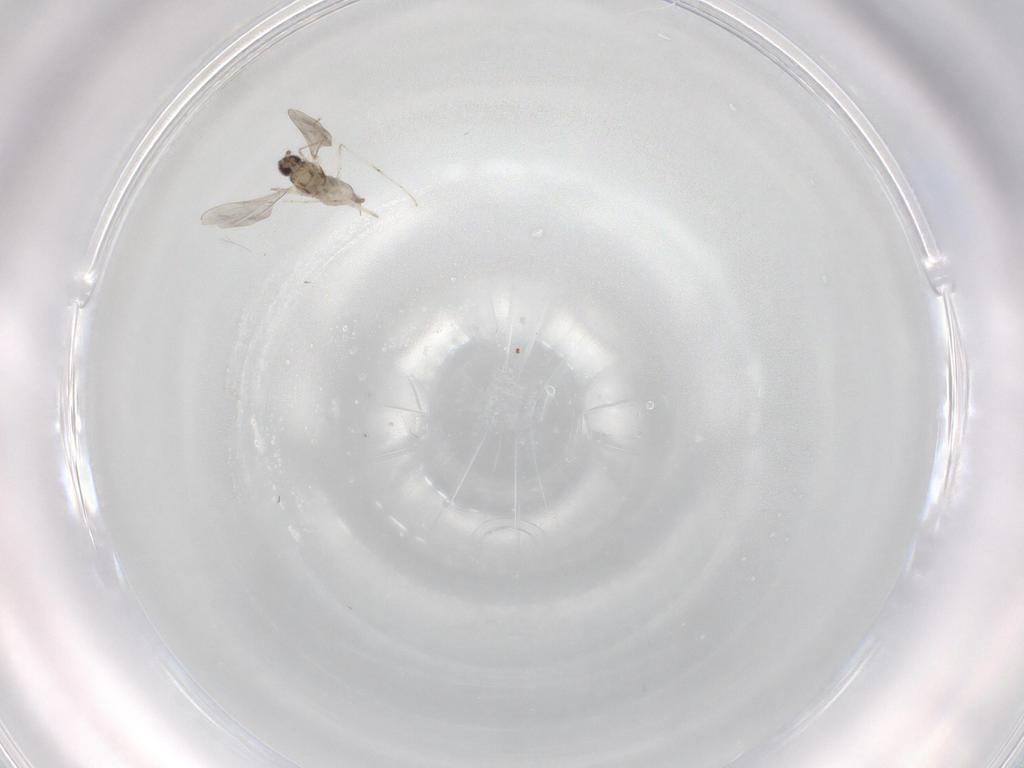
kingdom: Animalia
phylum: Arthropoda
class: Insecta
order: Diptera
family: Cecidomyiidae
